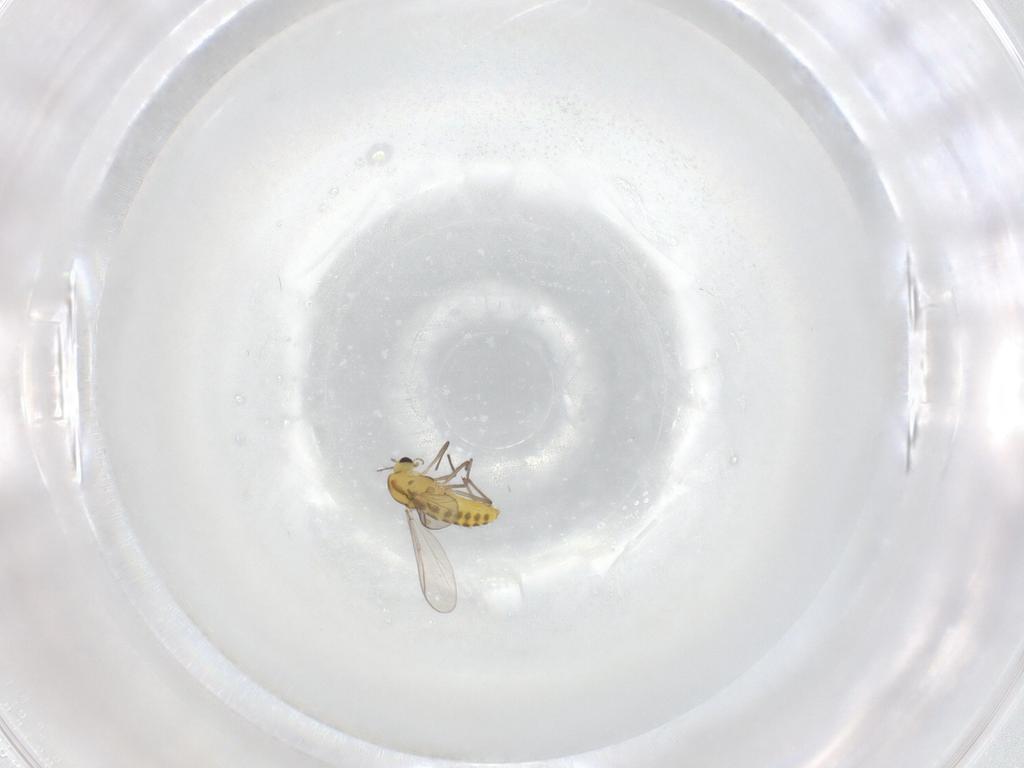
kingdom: Animalia
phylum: Arthropoda
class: Insecta
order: Diptera
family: Chironomidae
